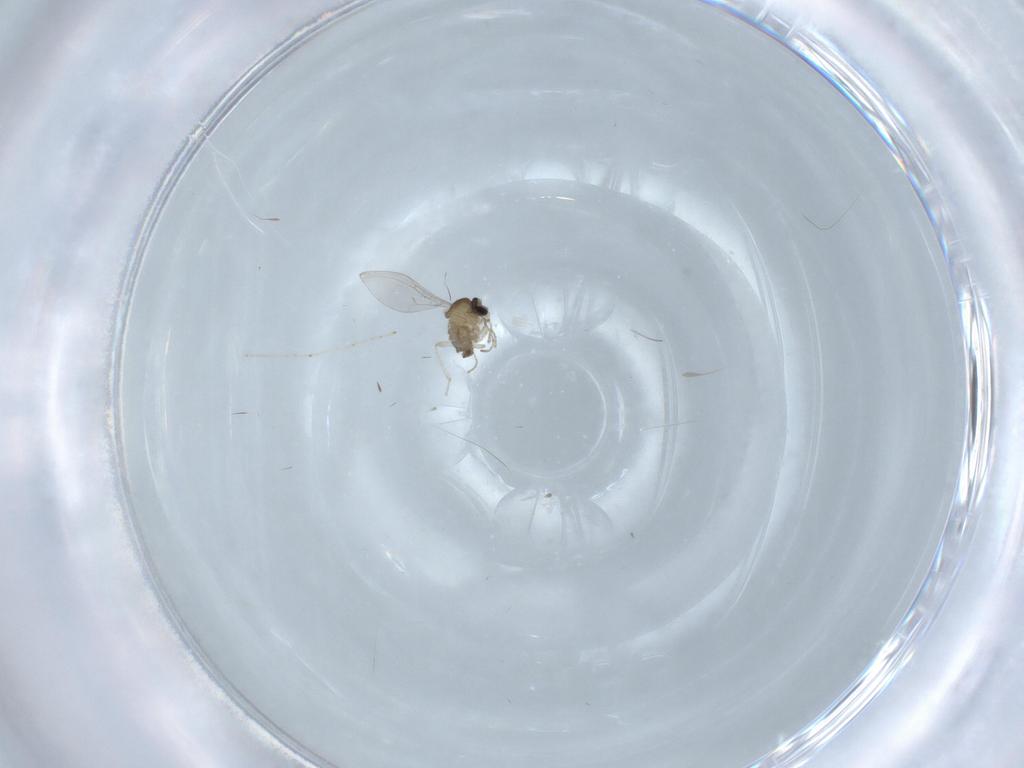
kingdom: Animalia
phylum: Arthropoda
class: Insecta
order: Diptera
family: Cecidomyiidae
